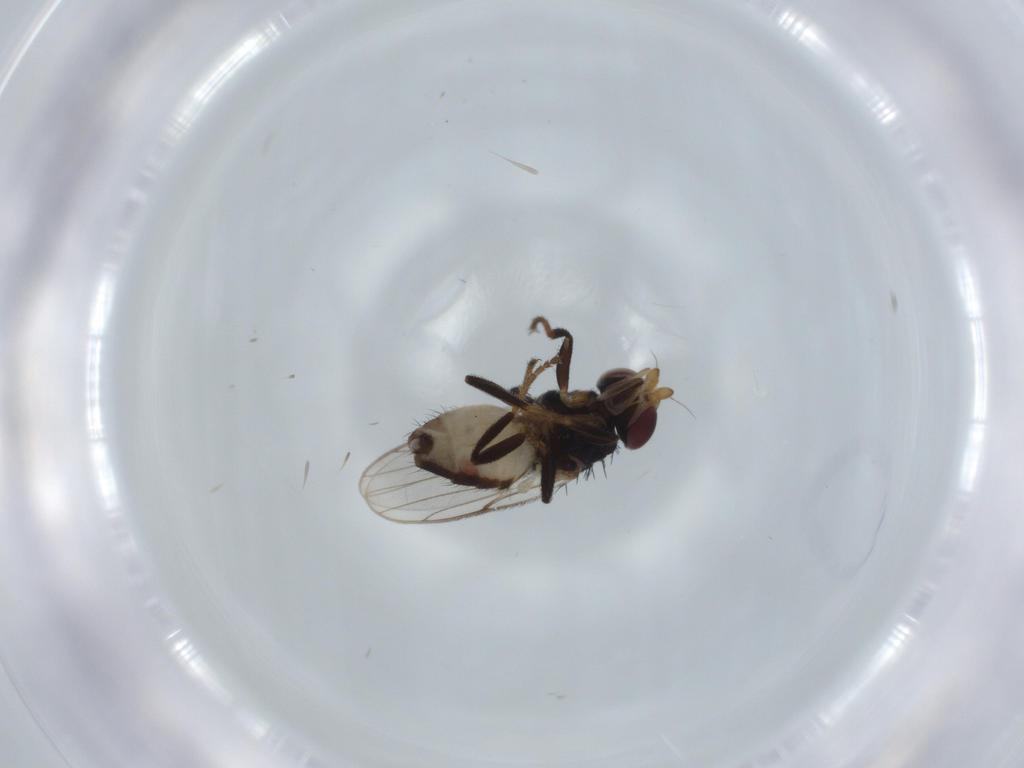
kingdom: Animalia
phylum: Arthropoda
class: Insecta
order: Diptera
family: Chloropidae
